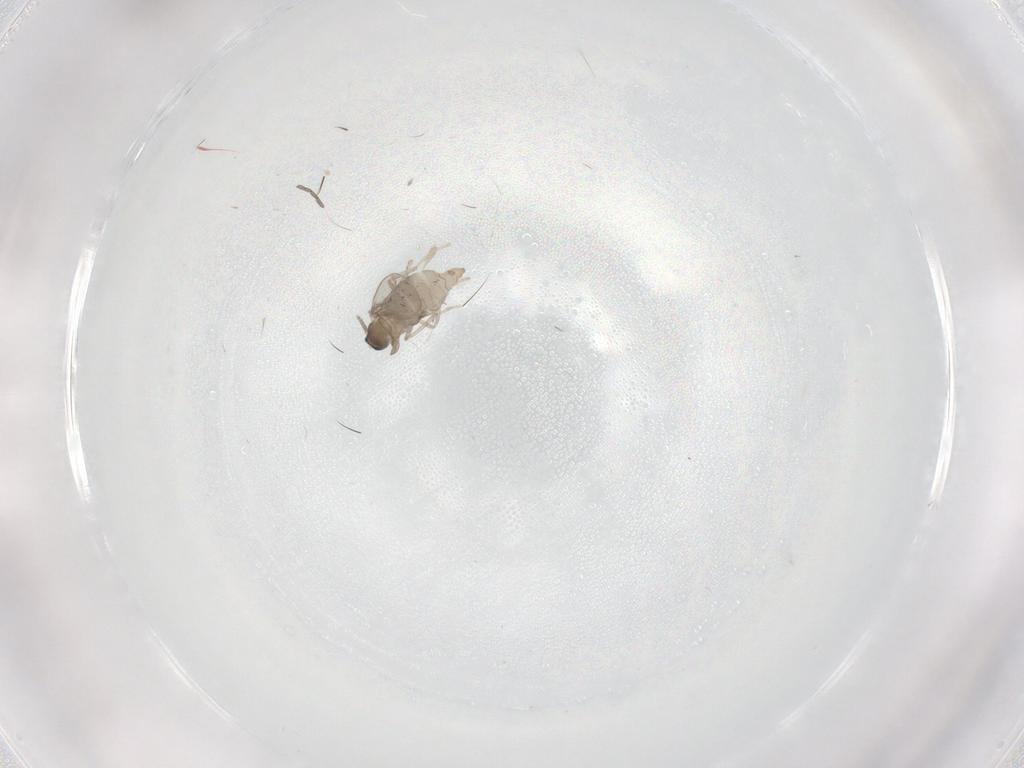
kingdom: Animalia
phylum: Arthropoda
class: Insecta
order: Diptera
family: Cecidomyiidae
